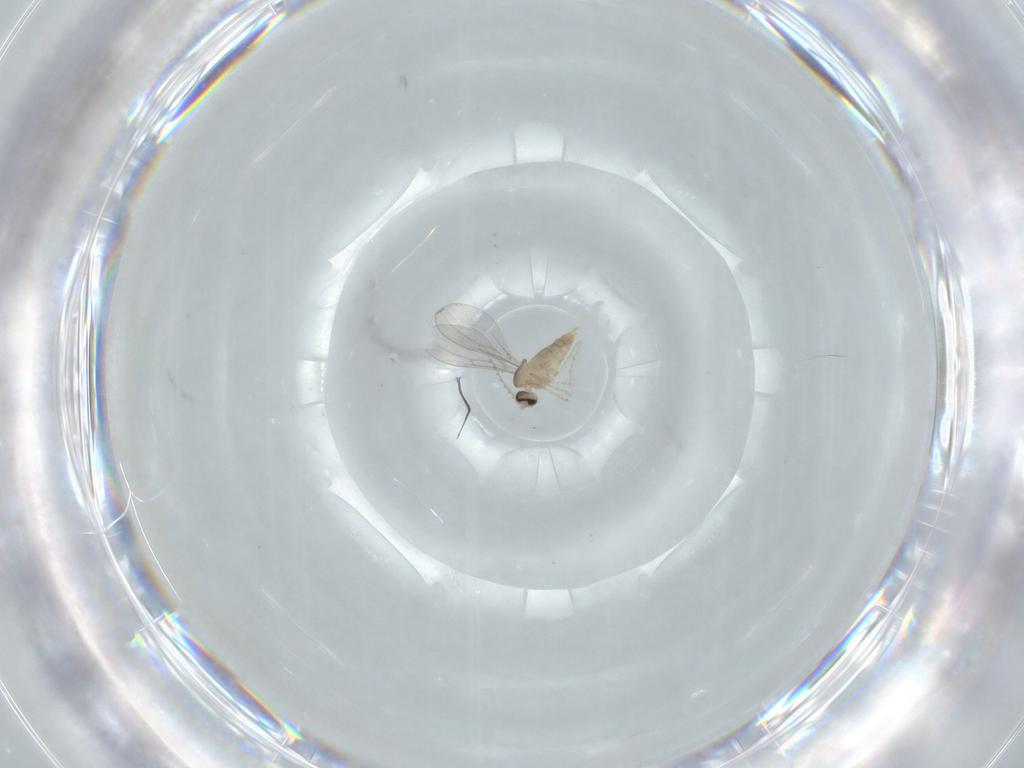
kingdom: Animalia
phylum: Arthropoda
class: Insecta
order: Diptera
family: Cecidomyiidae
